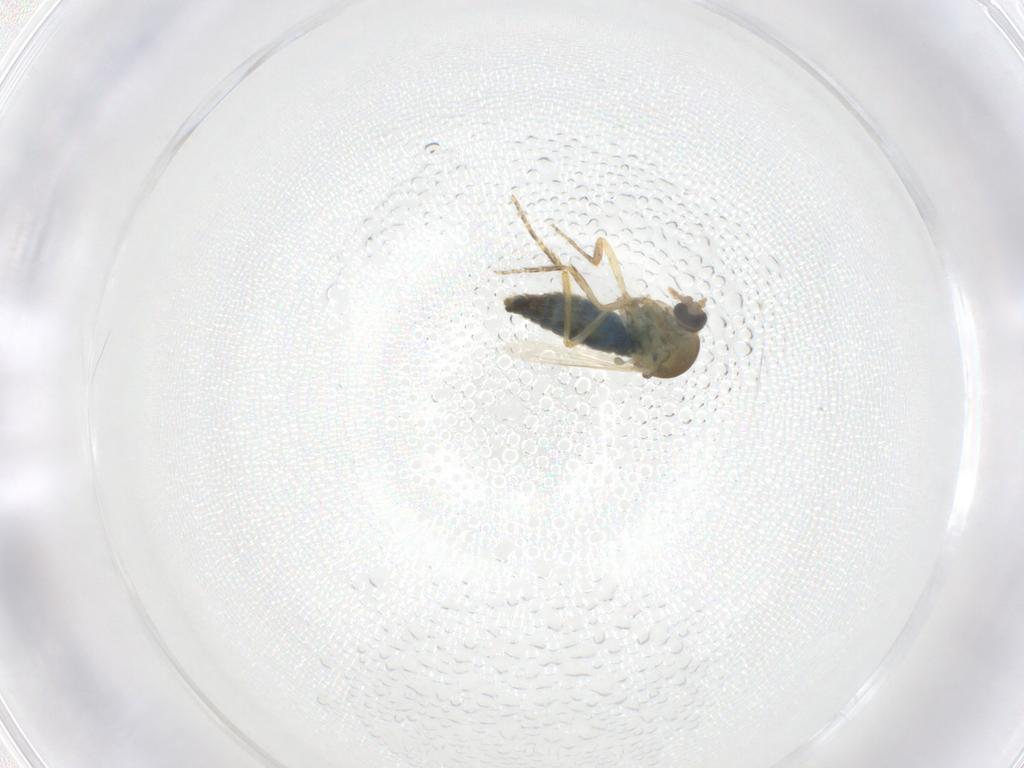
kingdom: Animalia
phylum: Arthropoda
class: Insecta
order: Diptera
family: Ceratopogonidae
